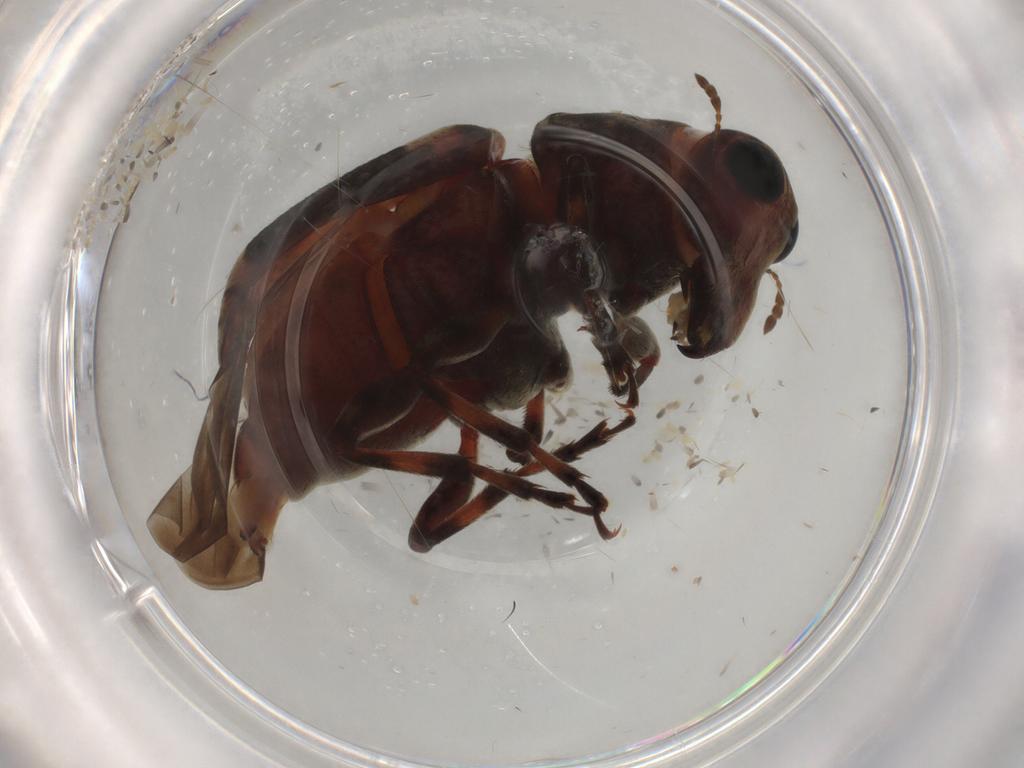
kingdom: Animalia
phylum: Arthropoda
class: Insecta
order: Coleoptera
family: Anthribidae
